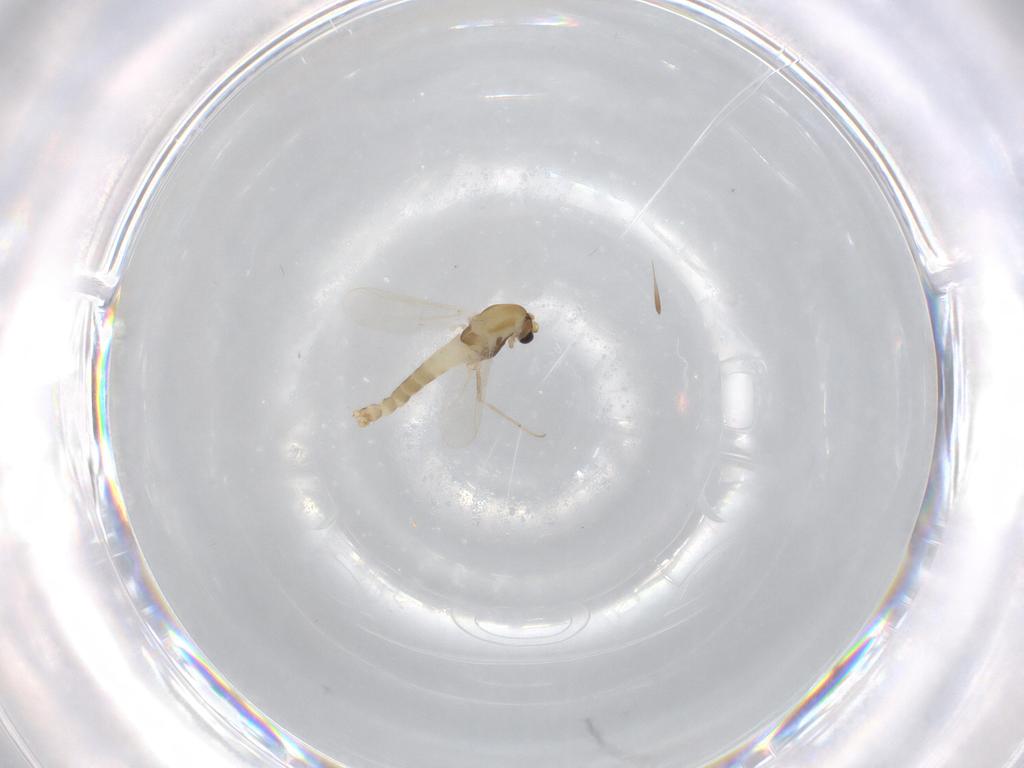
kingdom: Animalia
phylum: Arthropoda
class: Insecta
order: Diptera
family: Chironomidae
